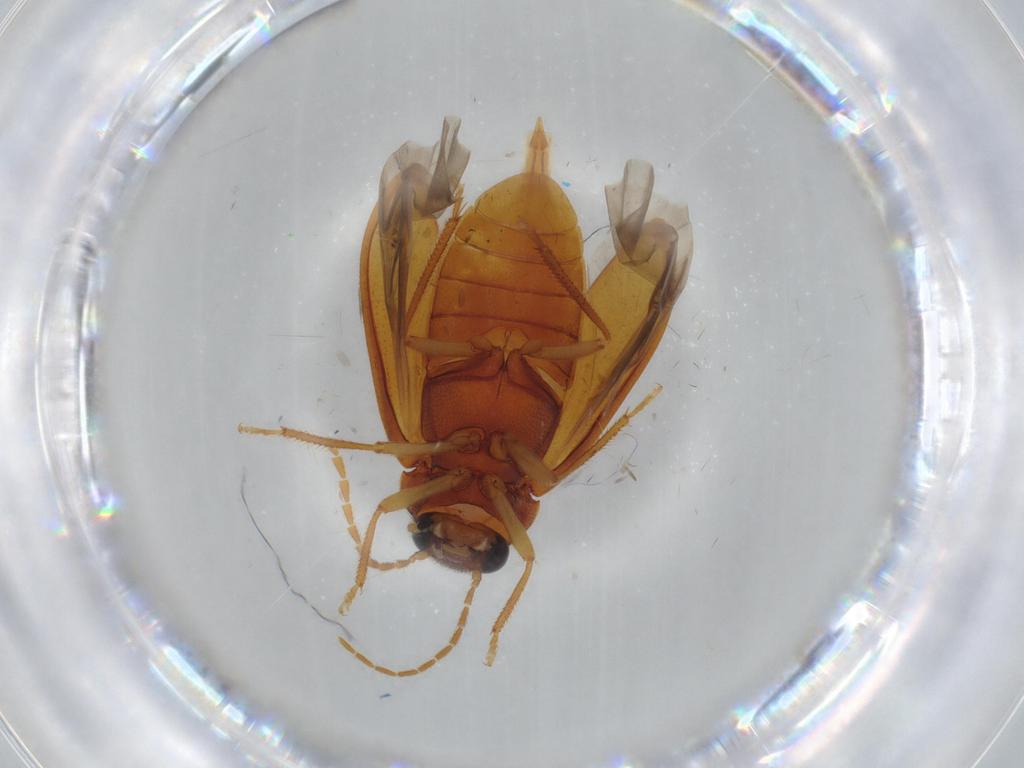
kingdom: Animalia
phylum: Arthropoda
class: Insecta
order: Coleoptera
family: Ptilodactylidae
